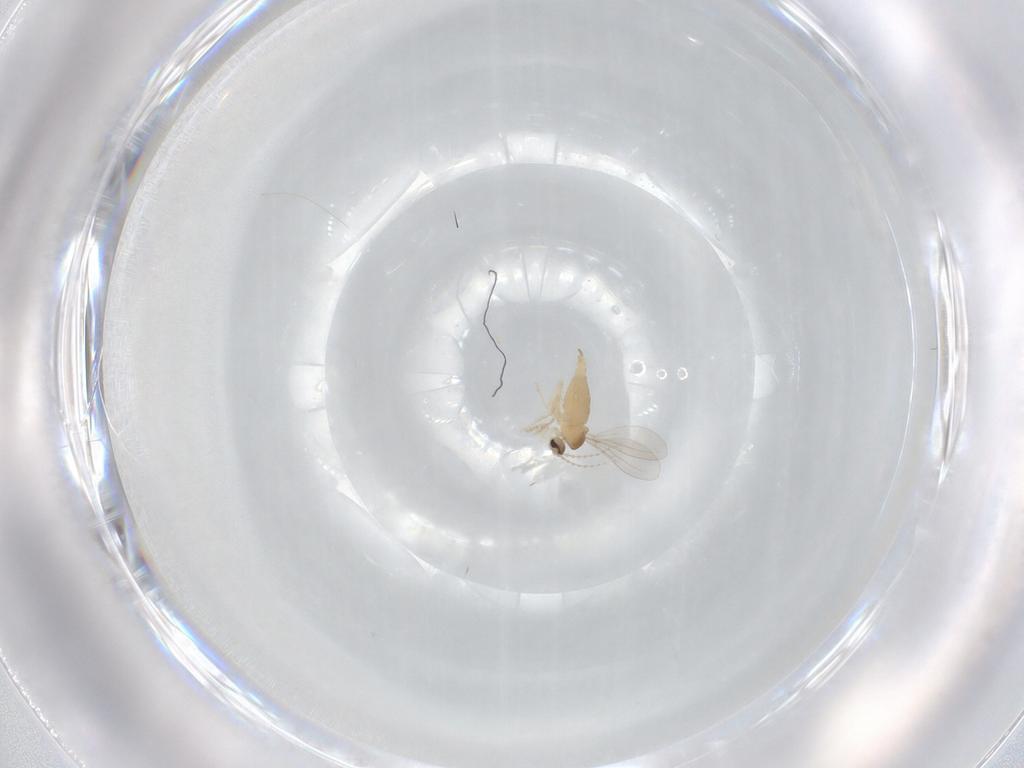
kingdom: Animalia
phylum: Arthropoda
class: Insecta
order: Diptera
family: Cecidomyiidae
